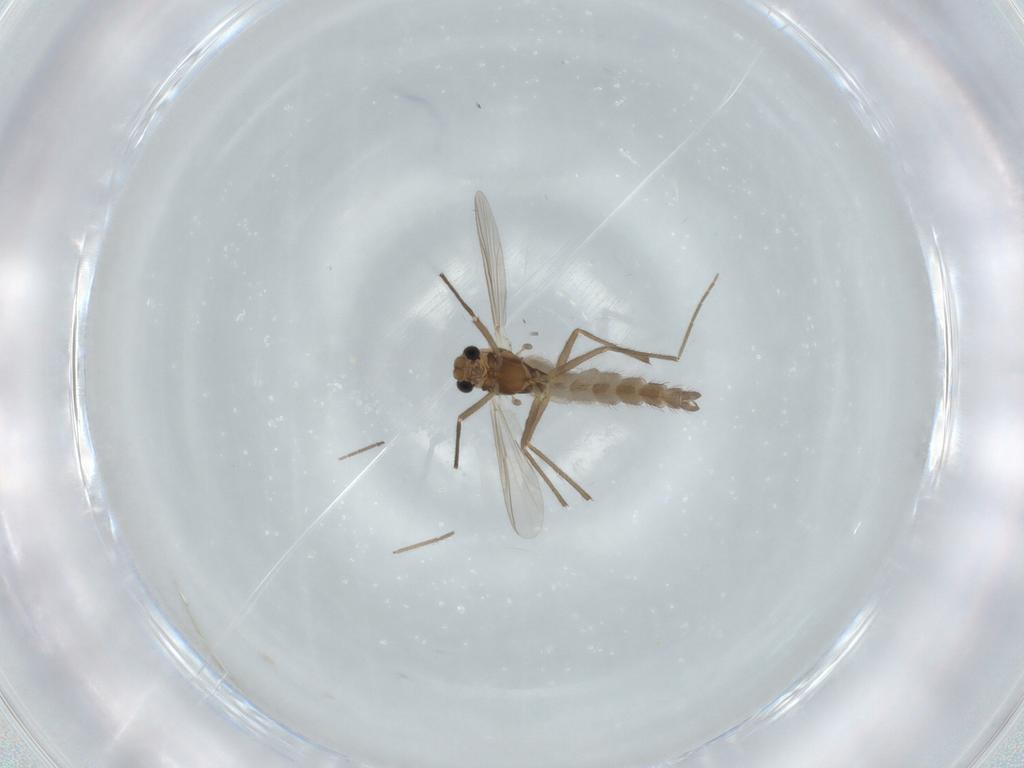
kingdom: Animalia
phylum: Arthropoda
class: Insecta
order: Diptera
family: Chironomidae
